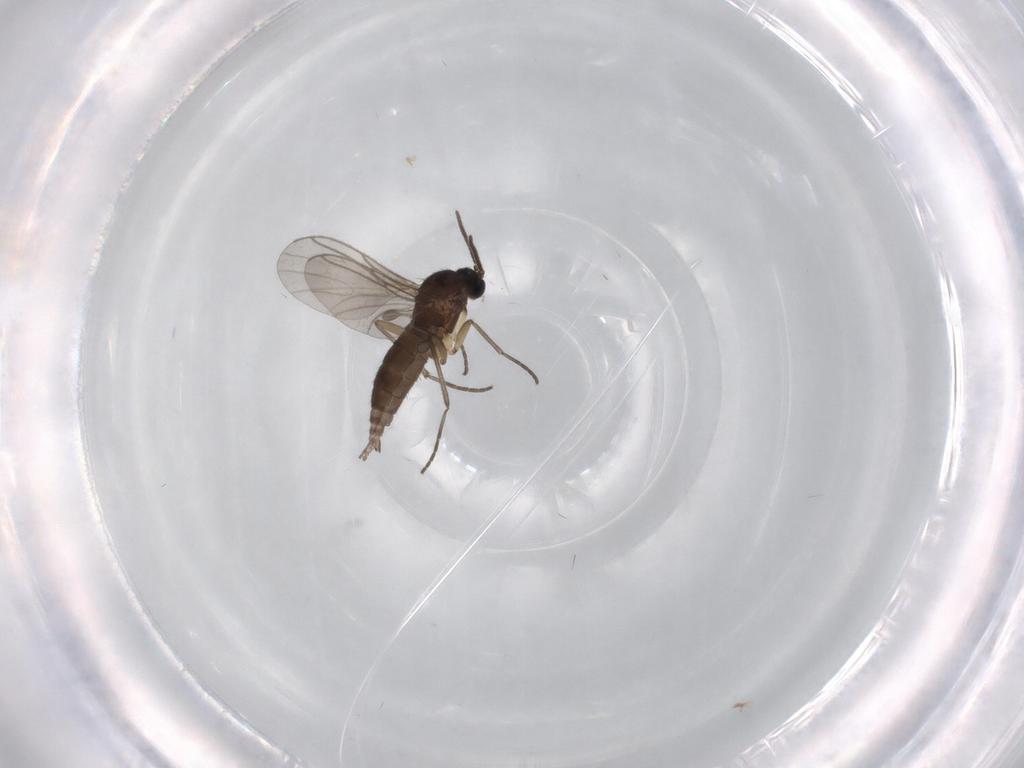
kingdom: Animalia
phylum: Arthropoda
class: Insecta
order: Diptera
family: Sciaridae
